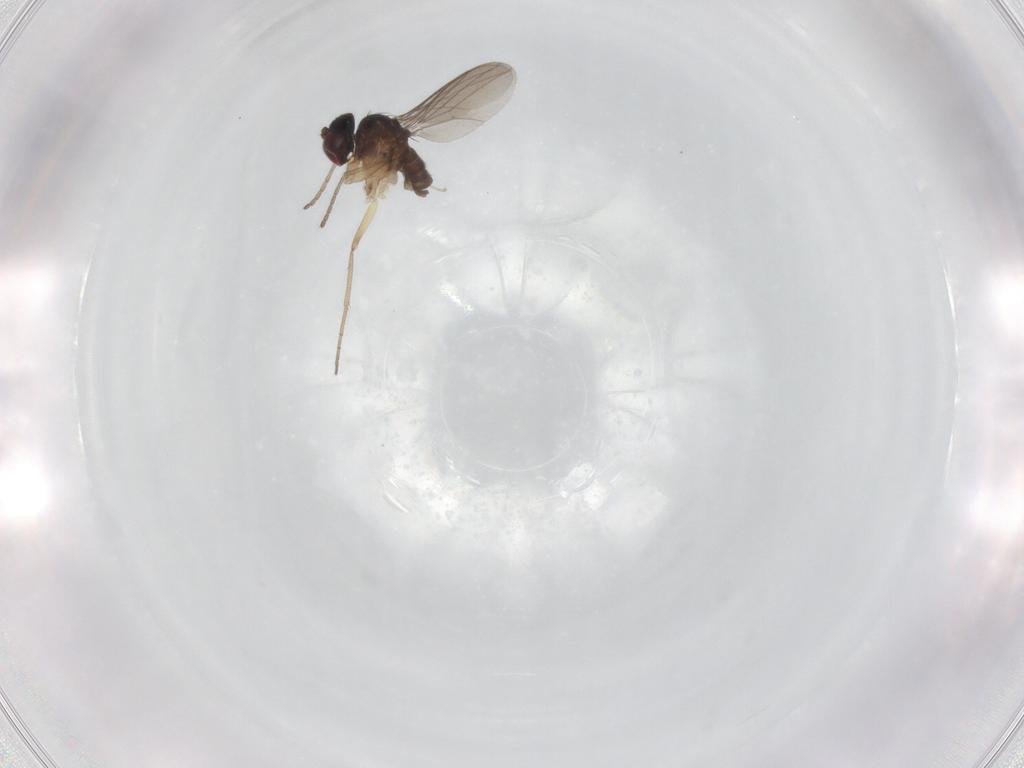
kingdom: Animalia
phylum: Arthropoda
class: Insecta
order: Diptera
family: Dolichopodidae
